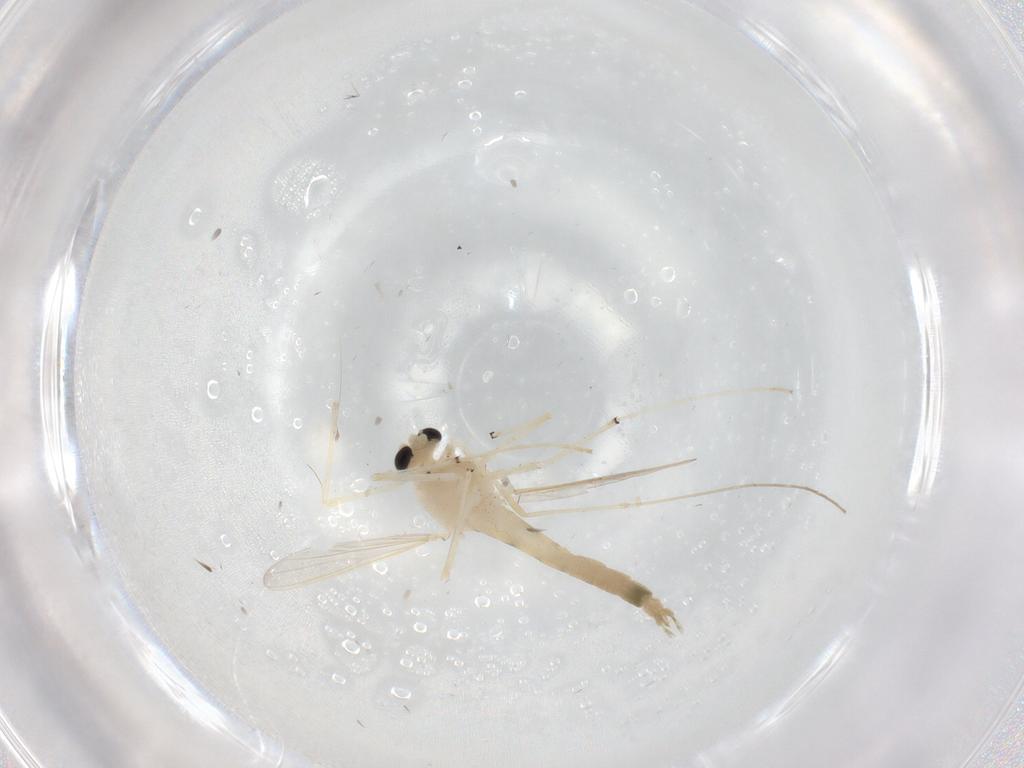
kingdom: Animalia
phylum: Arthropoda
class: Insecta
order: Diptera
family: Chironomidae
